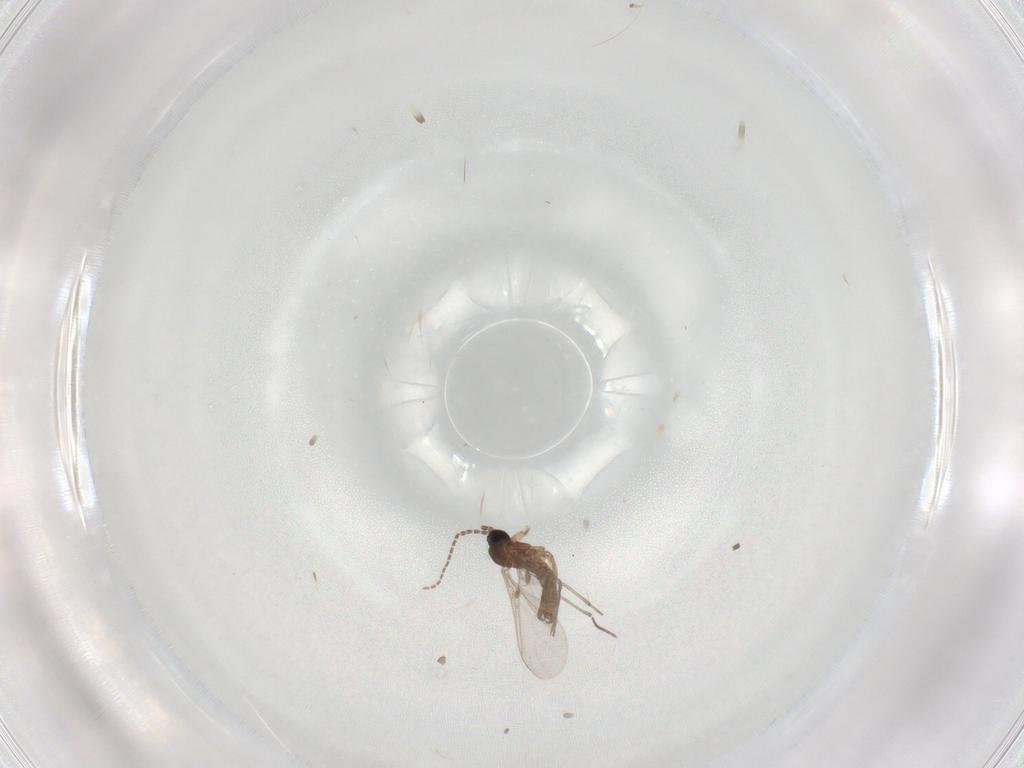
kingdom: Animalia
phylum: Arthropoda
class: Insecta
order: Diptera
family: Sciaridae
